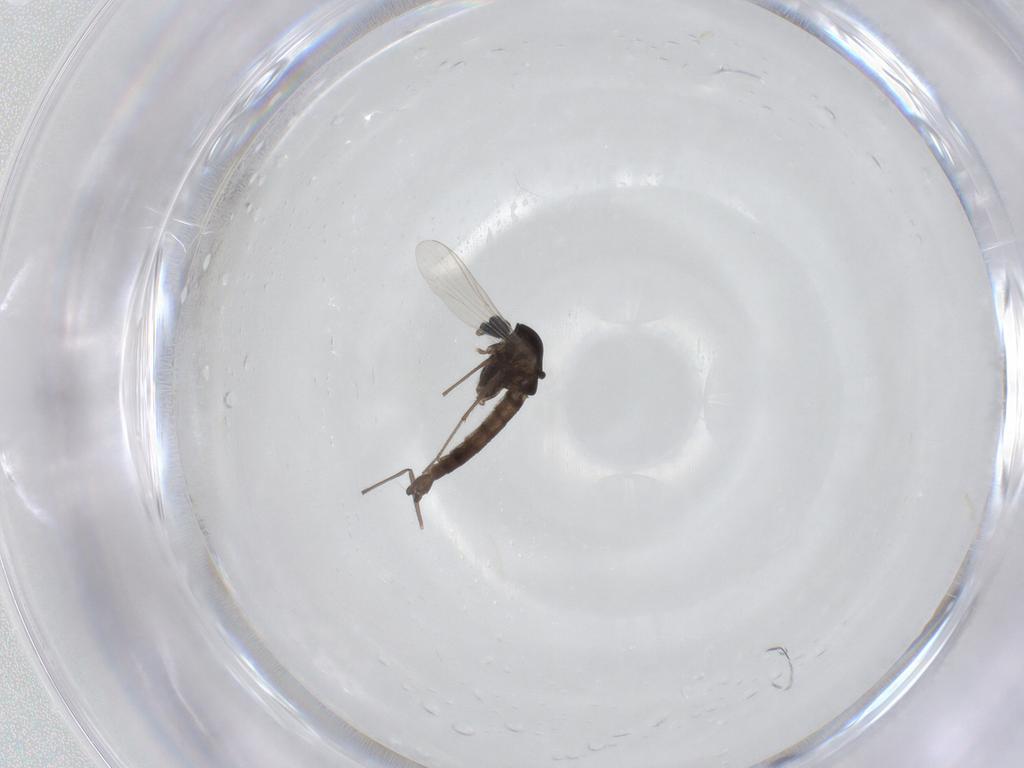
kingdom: Animalia
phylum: Arthropoda
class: Insecta
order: Diptera
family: Chironomidae
